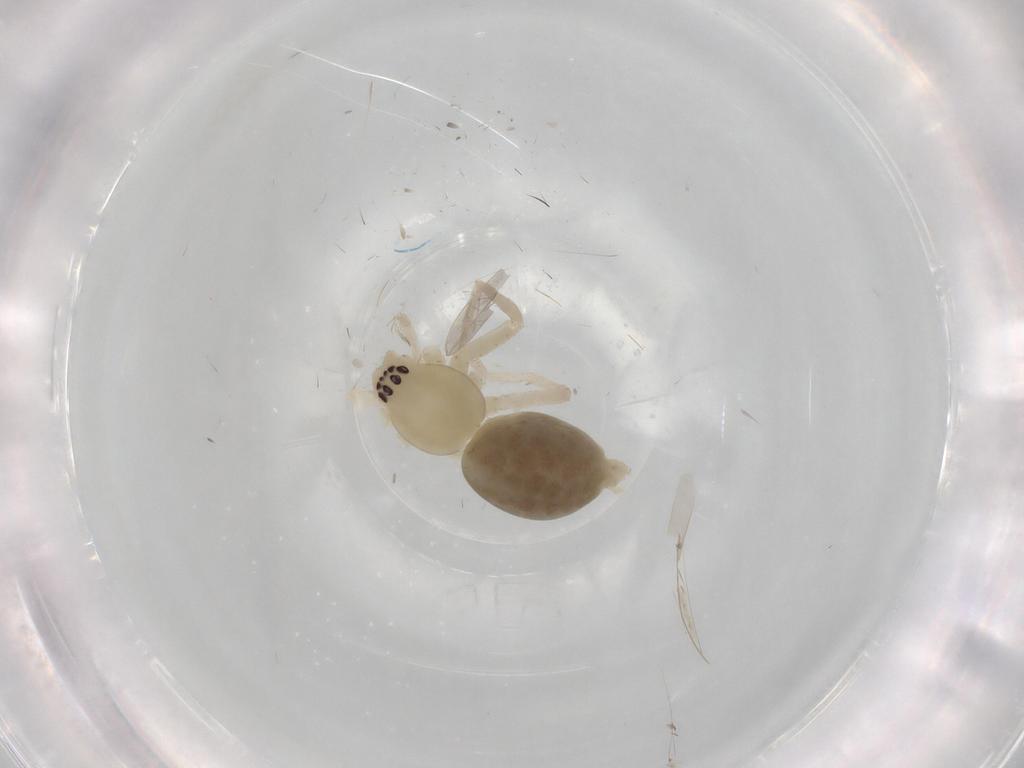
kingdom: Animalia
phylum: Arthropoda
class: Arachnida
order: Araneae
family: Anyphaenidae
